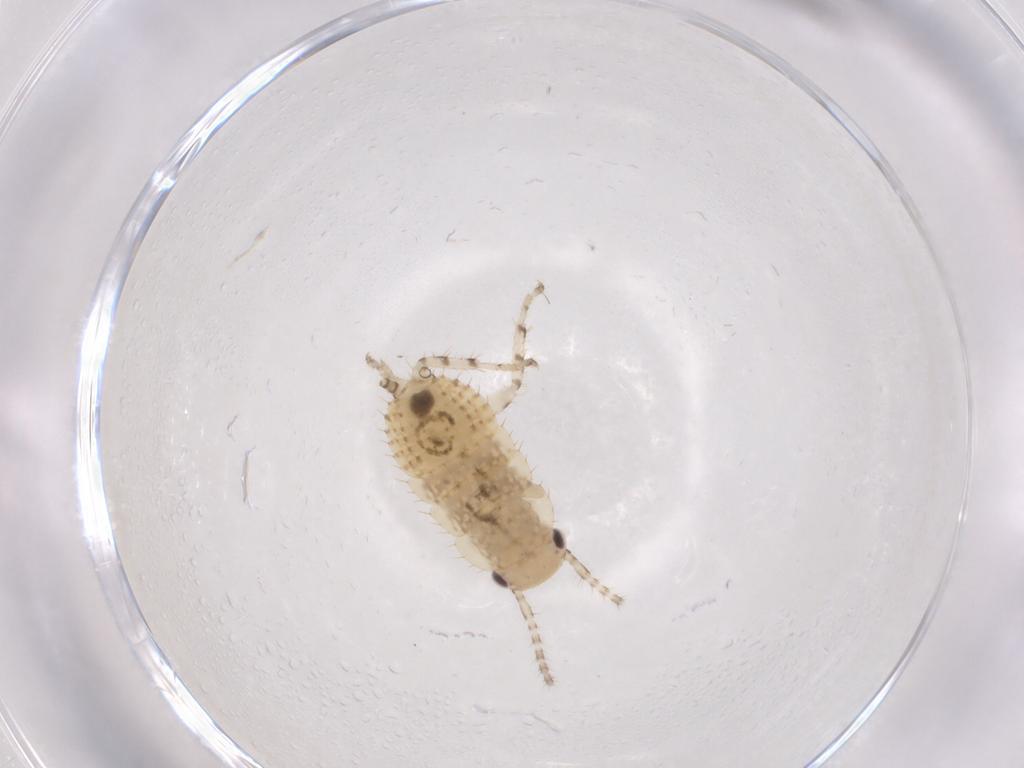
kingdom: Animalia
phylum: Arthropoda
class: Insecta
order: Blattodea
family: Ectobiidae
